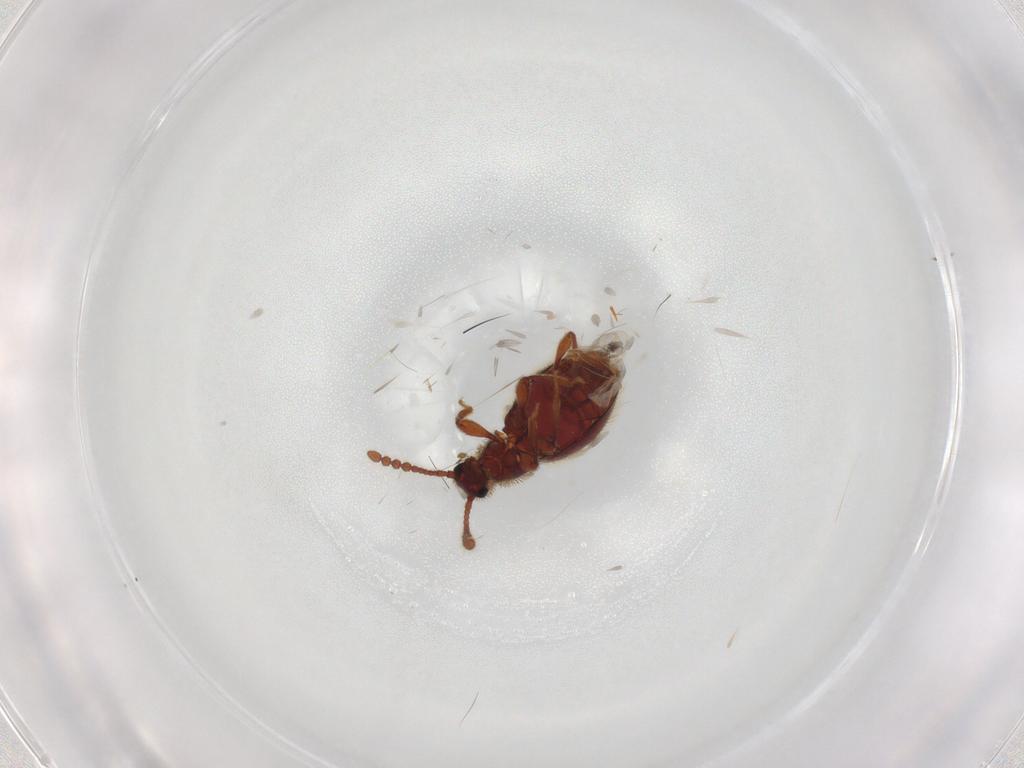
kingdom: Animalia
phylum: Arthropoda
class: Insecta
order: Coleoptera
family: Staphylinidae
